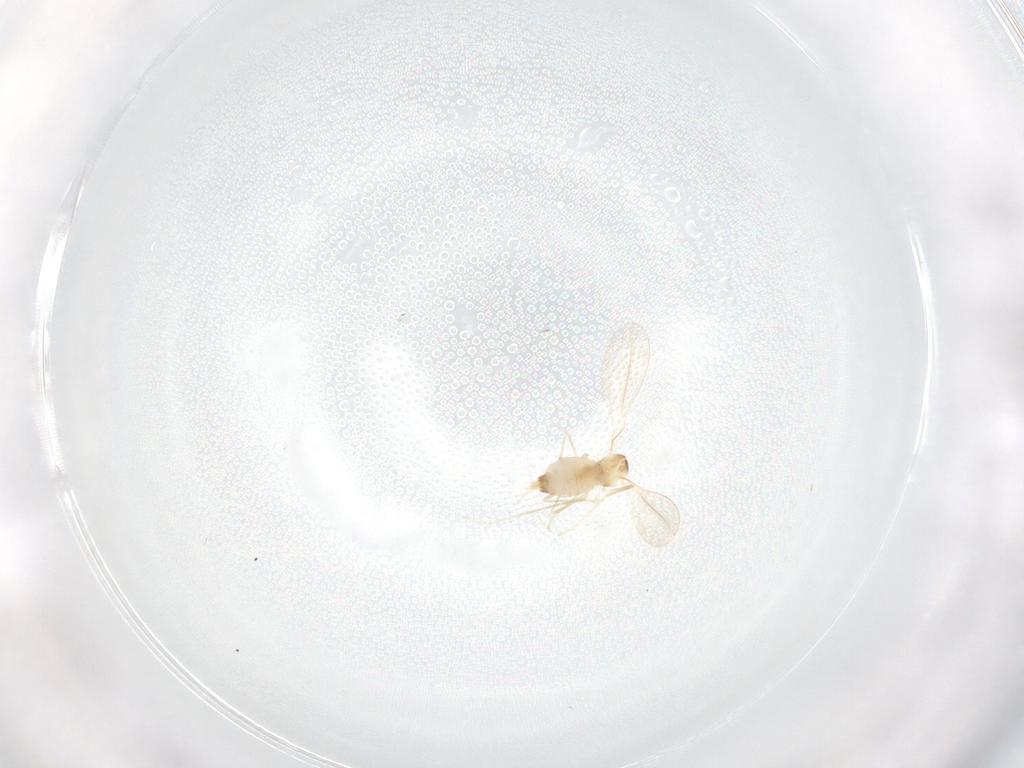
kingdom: Animalia
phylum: Arthropoda
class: Insecta
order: Diptera
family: Cecidomyiidae
